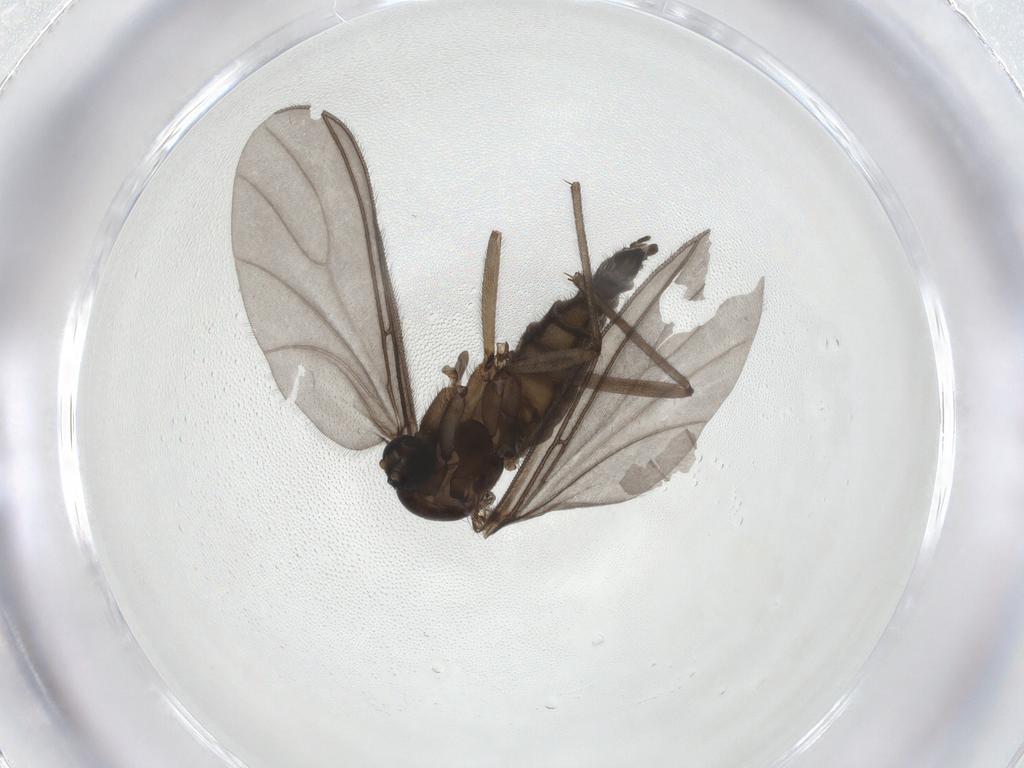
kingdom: Animalia
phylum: Arthropoda
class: Insecta
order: Diptera
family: Sciaridae
